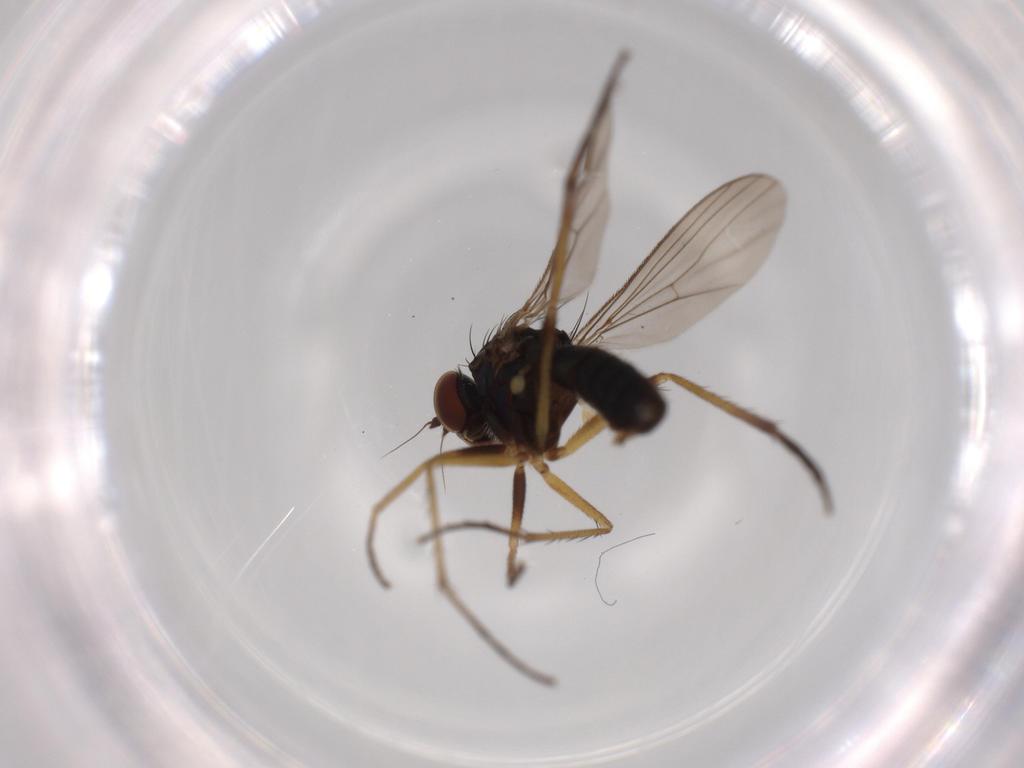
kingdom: Animalia
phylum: Arthropoda
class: Insecta
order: Diptera
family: Dolichopodidae
